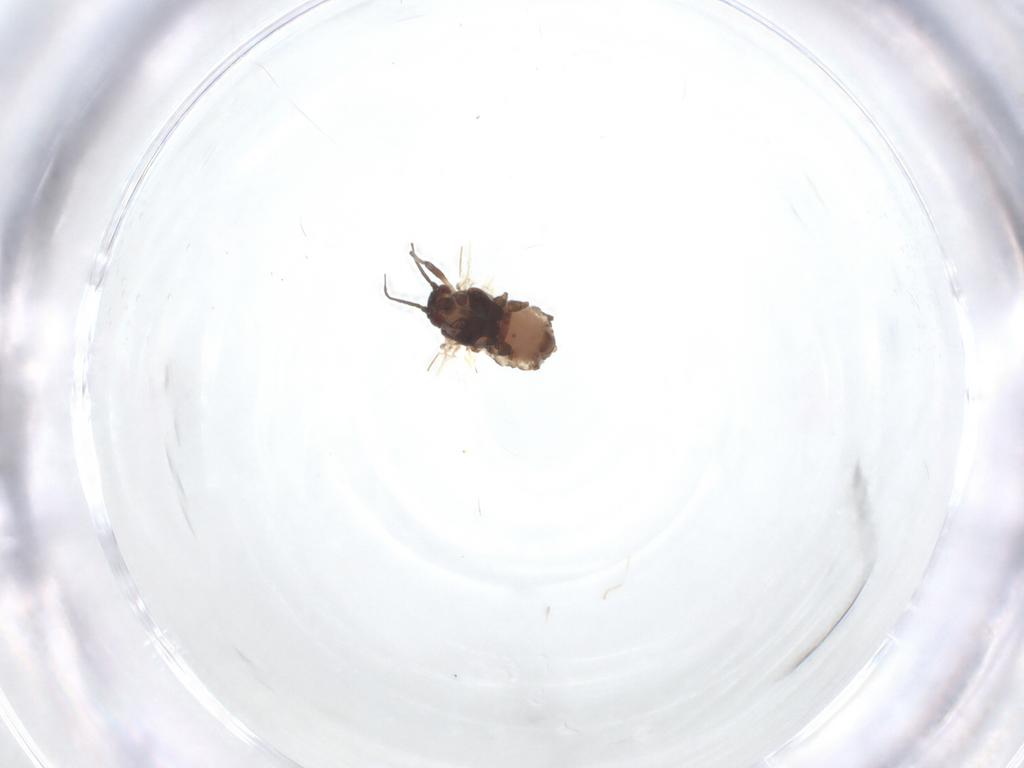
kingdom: Animalia
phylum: Arthropoda
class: Insecta
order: Hemiptera
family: Aphididae
